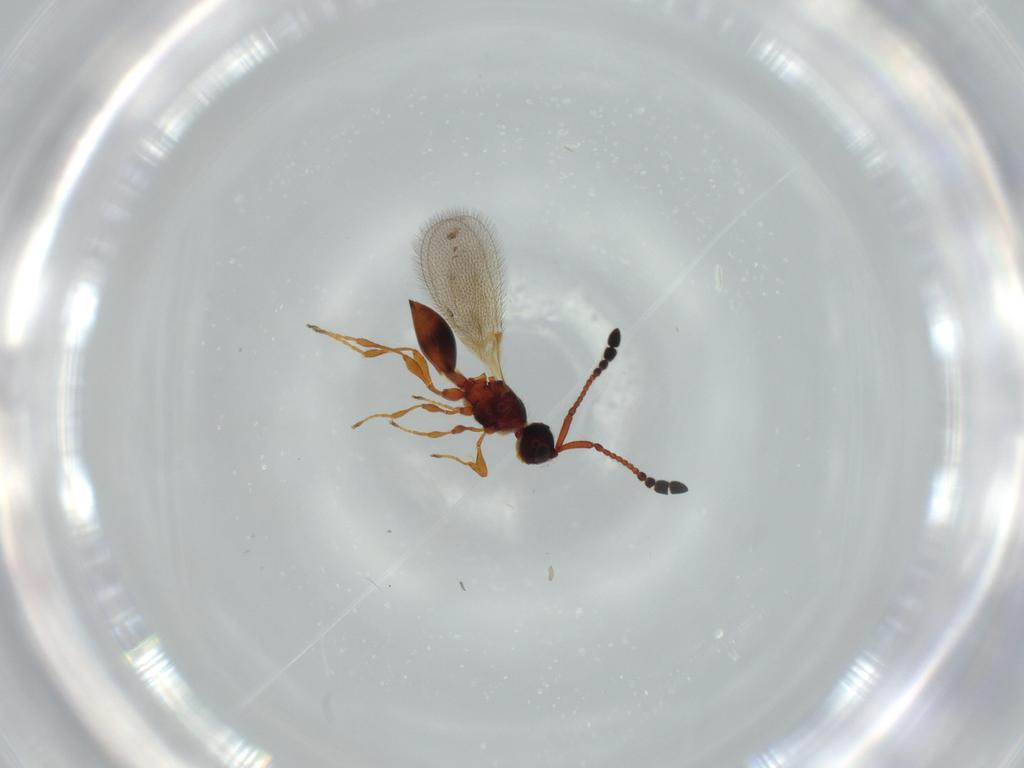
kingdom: Animalia
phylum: Arthropoda
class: Insecta
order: Hymenoptera
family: Diapriidae
